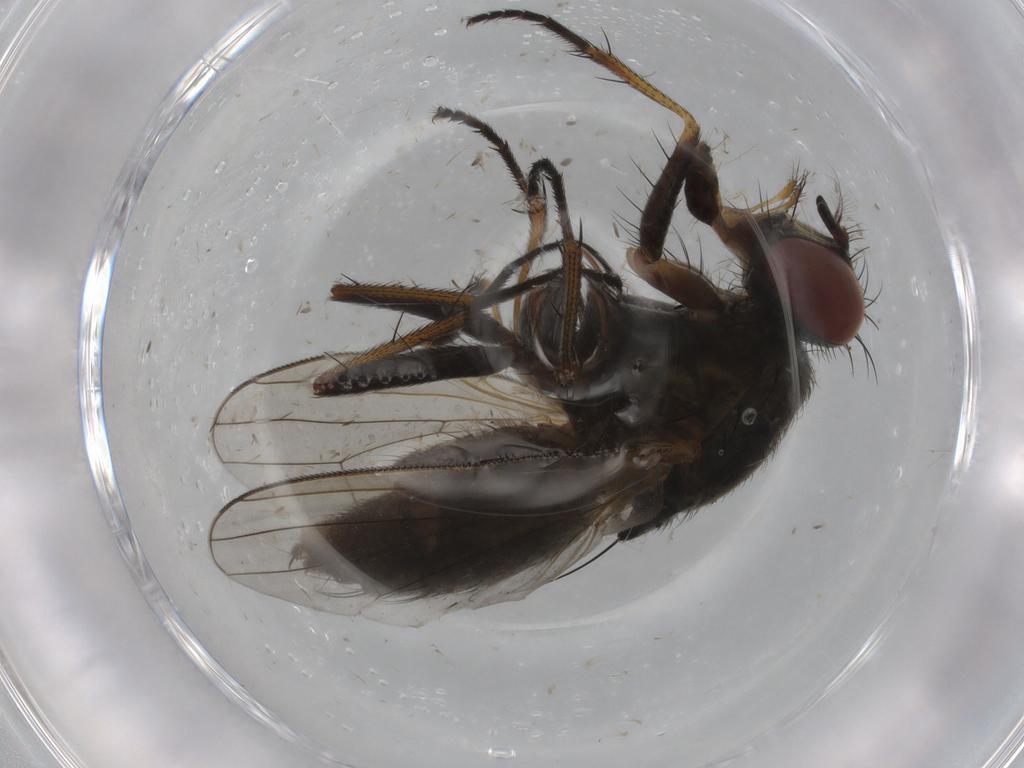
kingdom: Animalia
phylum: Arthropoda
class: Insecta
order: Diptera
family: Muscidae
